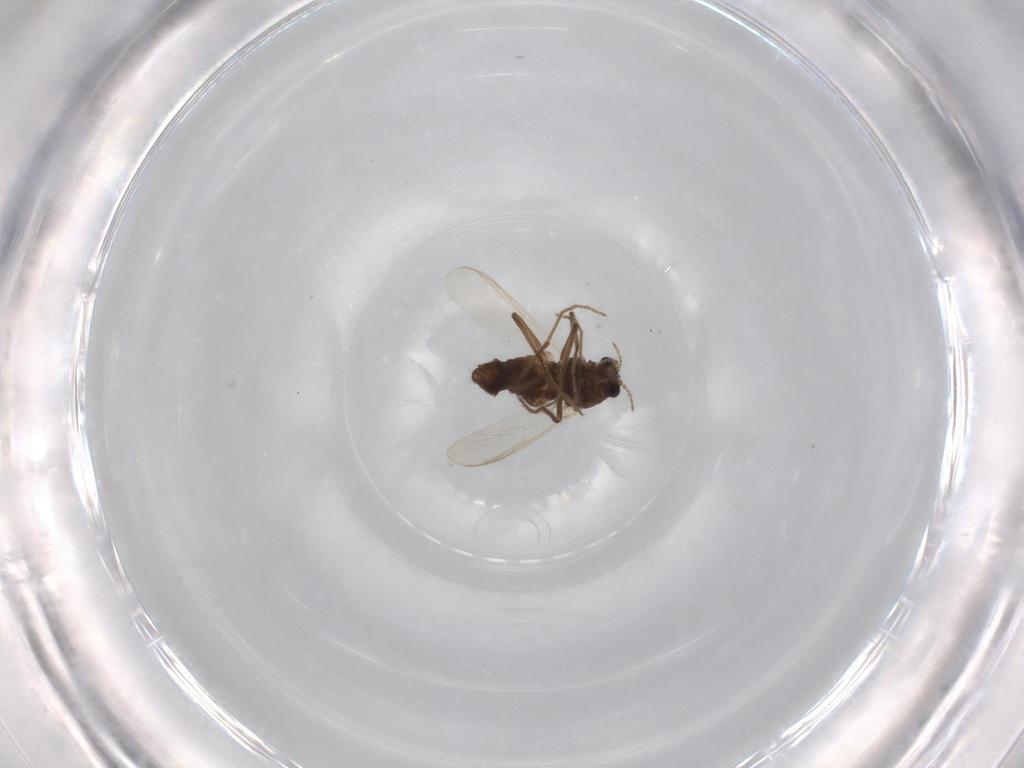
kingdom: Animalia
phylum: Arthropoda
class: Insecta
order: Diptera
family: Chironomidae
